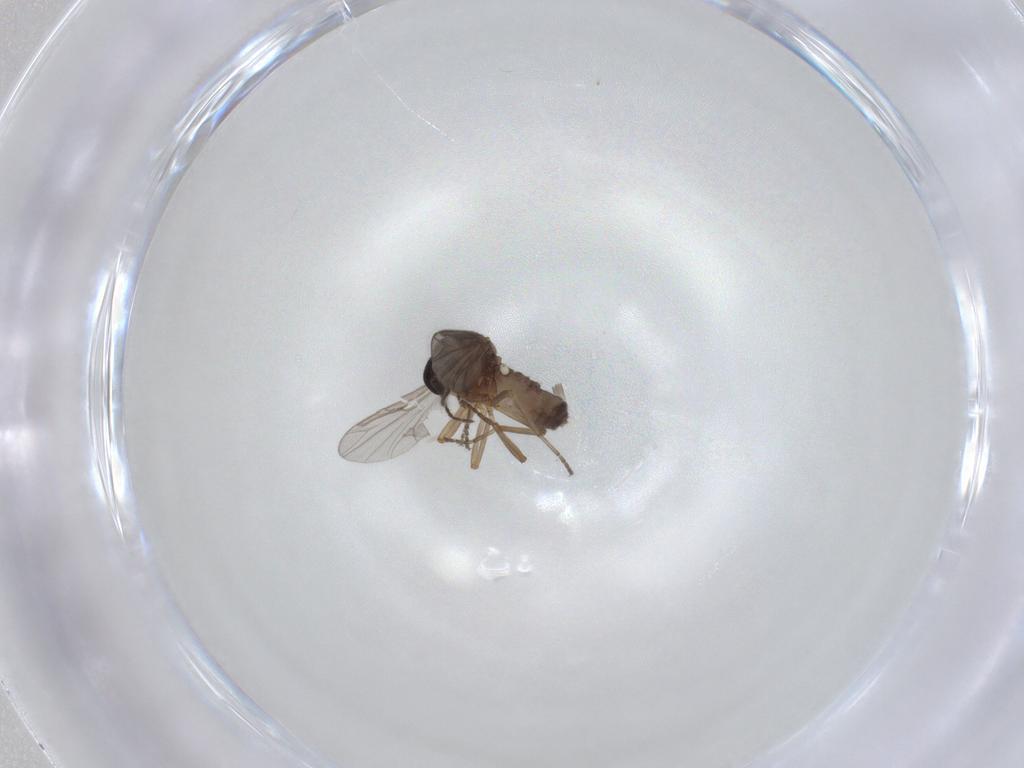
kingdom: Animalia
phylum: Arthropoda
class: Insecta
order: Diptera
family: Ceratopogonidae
